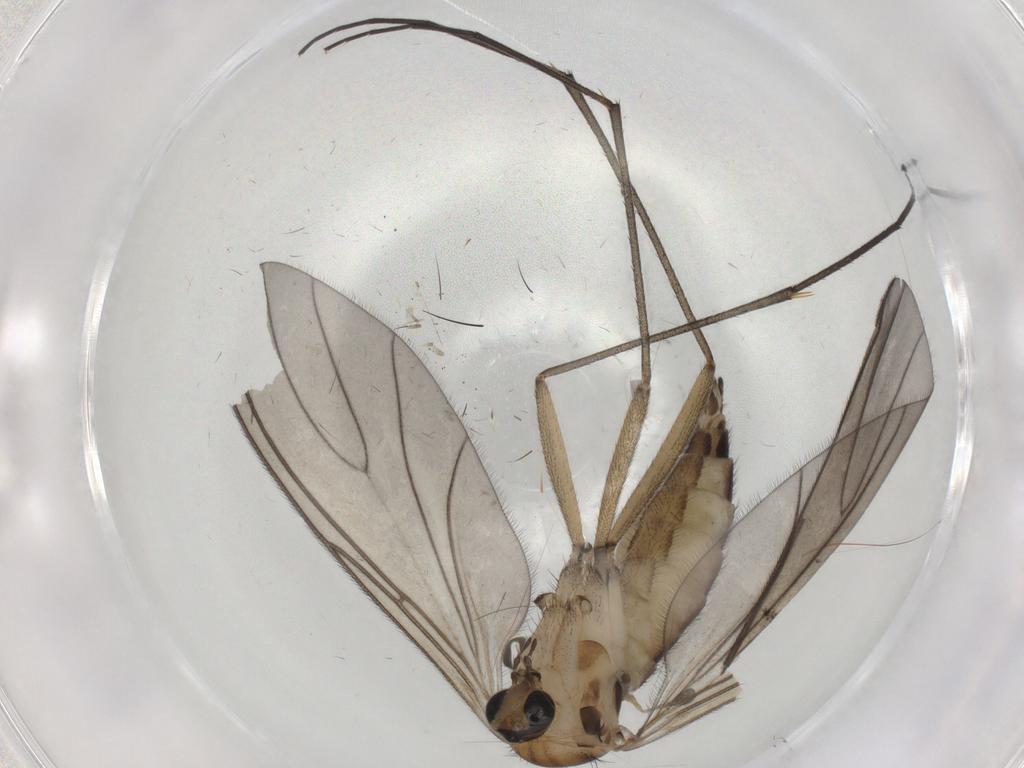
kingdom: Animalia
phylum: Arthropoda
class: Insecta
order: Diptera
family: Sciaridae
